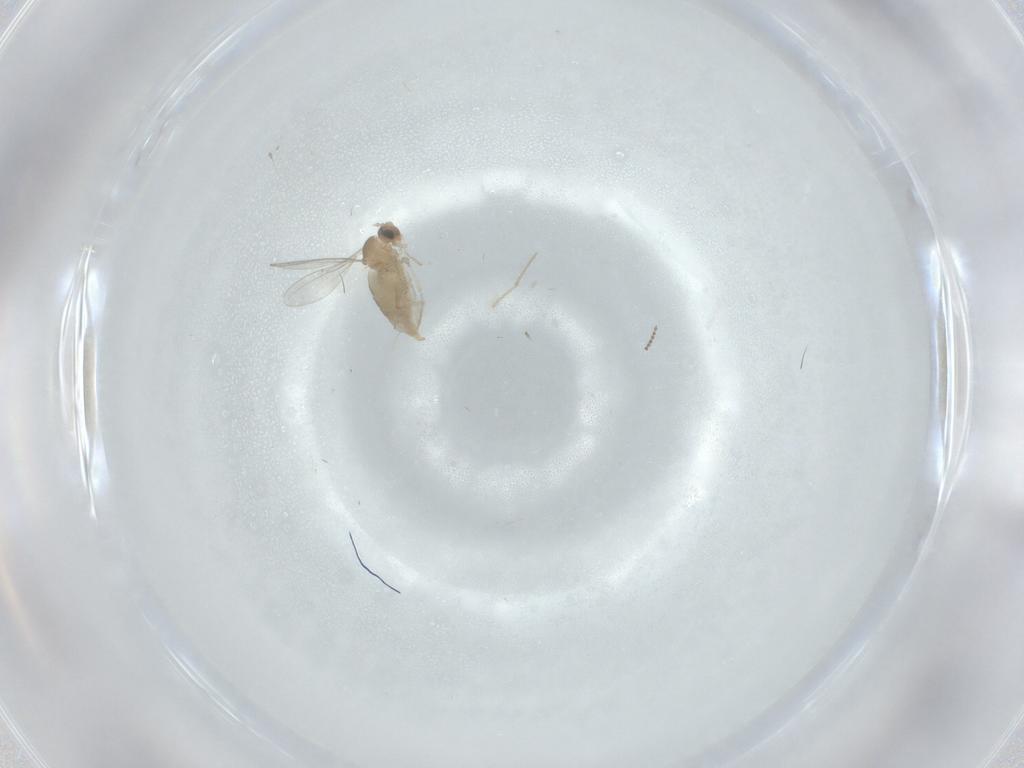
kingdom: Animalia
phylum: Arthropoda
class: Insecta
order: Diptera
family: Cecidomyiidae
